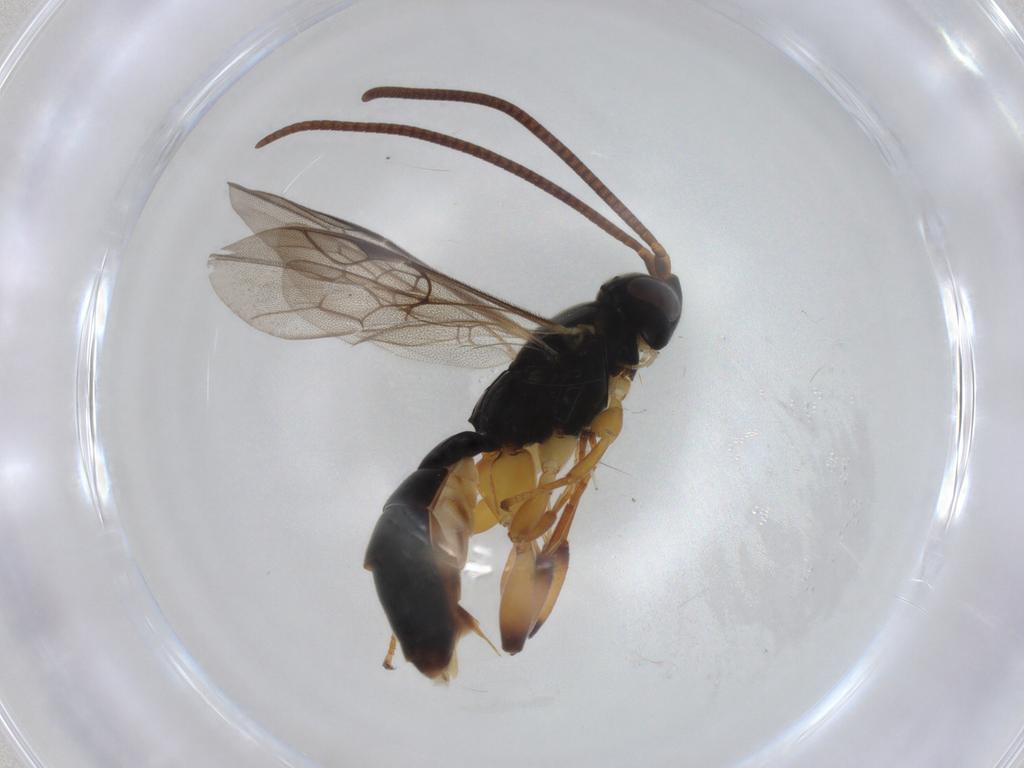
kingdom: Animalia
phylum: Arthropoda
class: Insecta
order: Hymenoptera
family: Ichneumonidae
